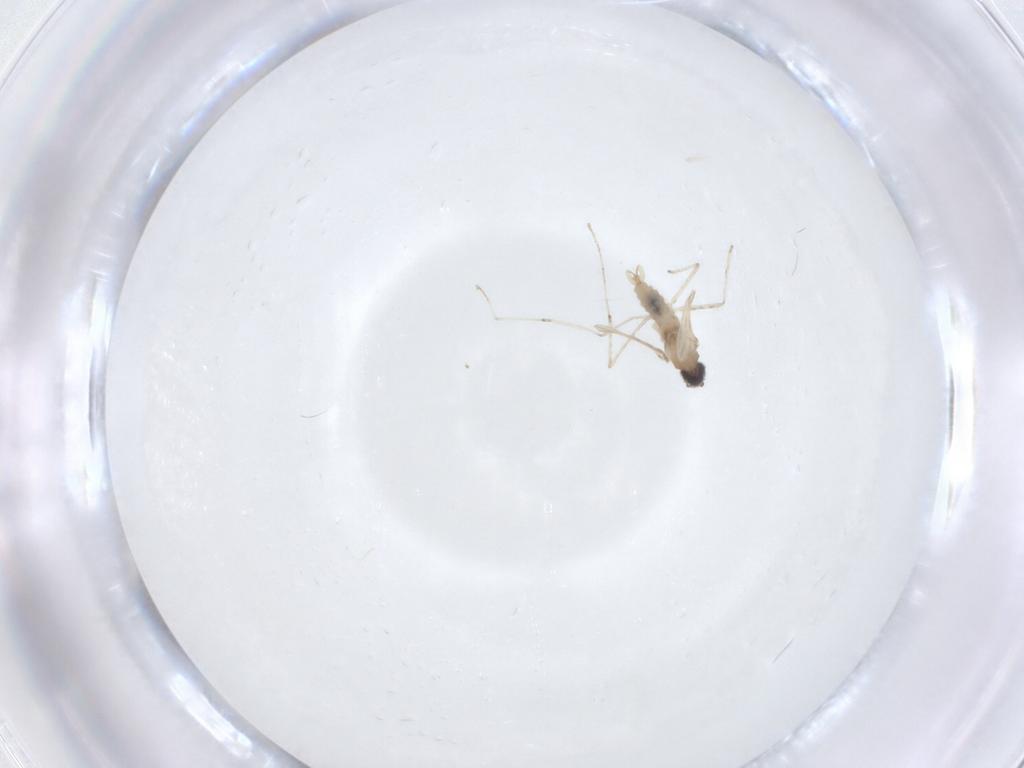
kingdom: Animalia
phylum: Arthropoda
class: Insecta
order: Diptera
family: Cecidomyiidae
